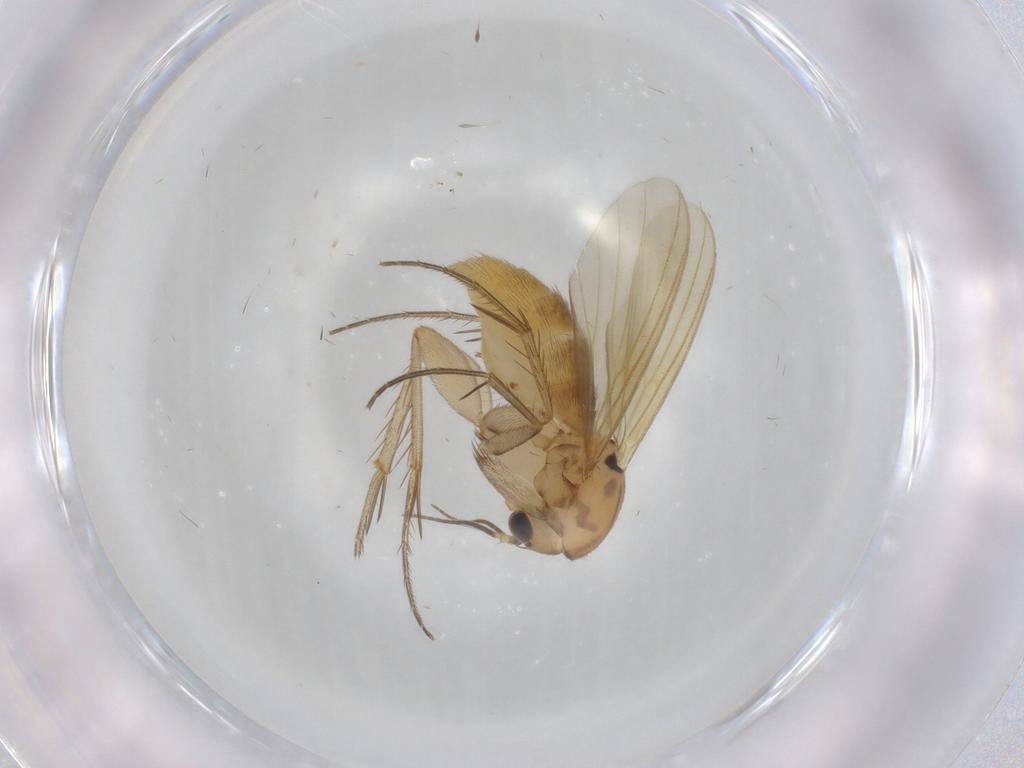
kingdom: Animalia
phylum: Arthropoda
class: Insecta
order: Diptera
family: Mycetophilidae
